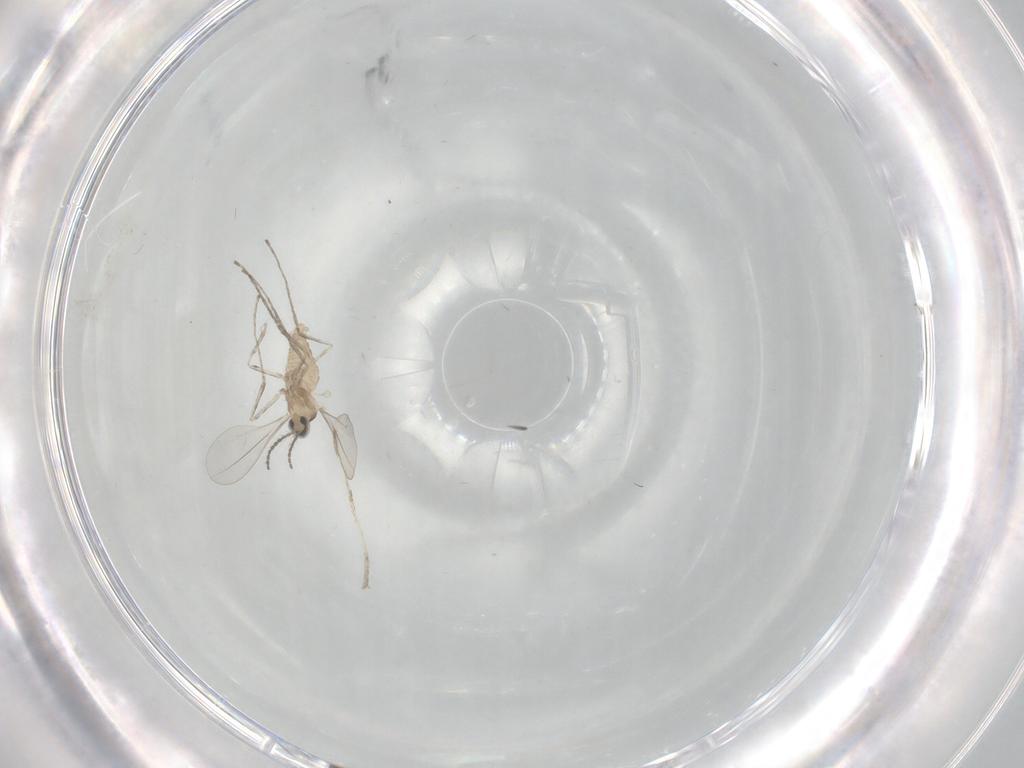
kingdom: Animalia
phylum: Arthropoda
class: Insecta
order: Diptera
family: Cecidomyiidae
